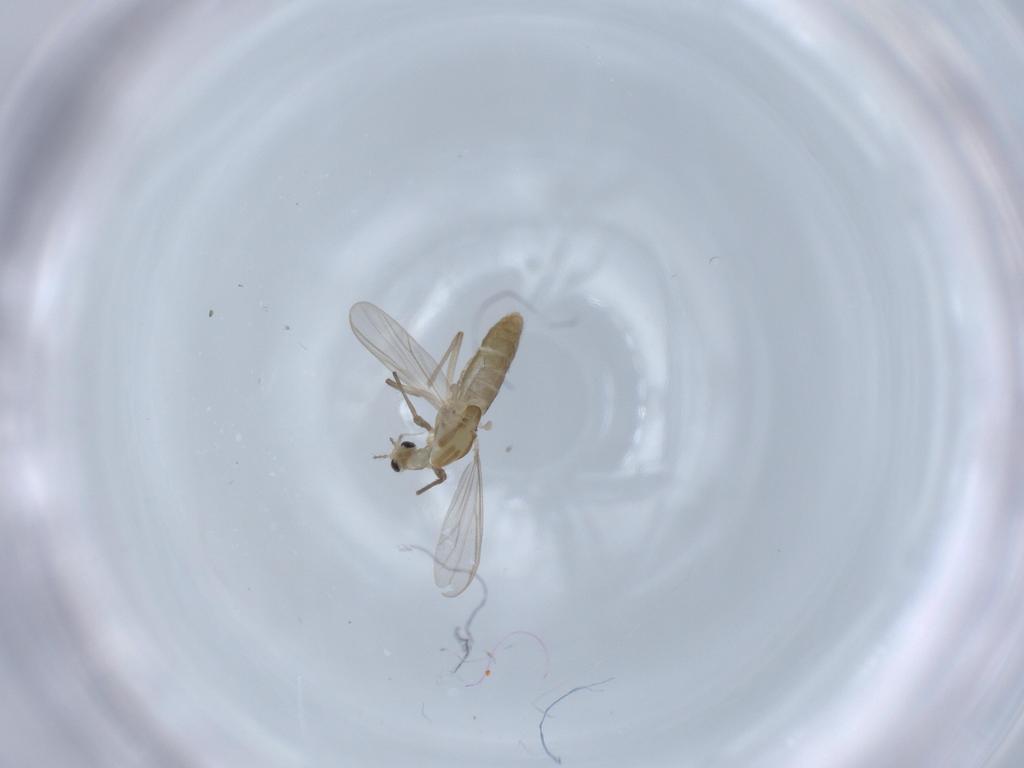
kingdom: Animalia
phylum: Arthropoda
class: Insecta
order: Diptera
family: Chironomidae
